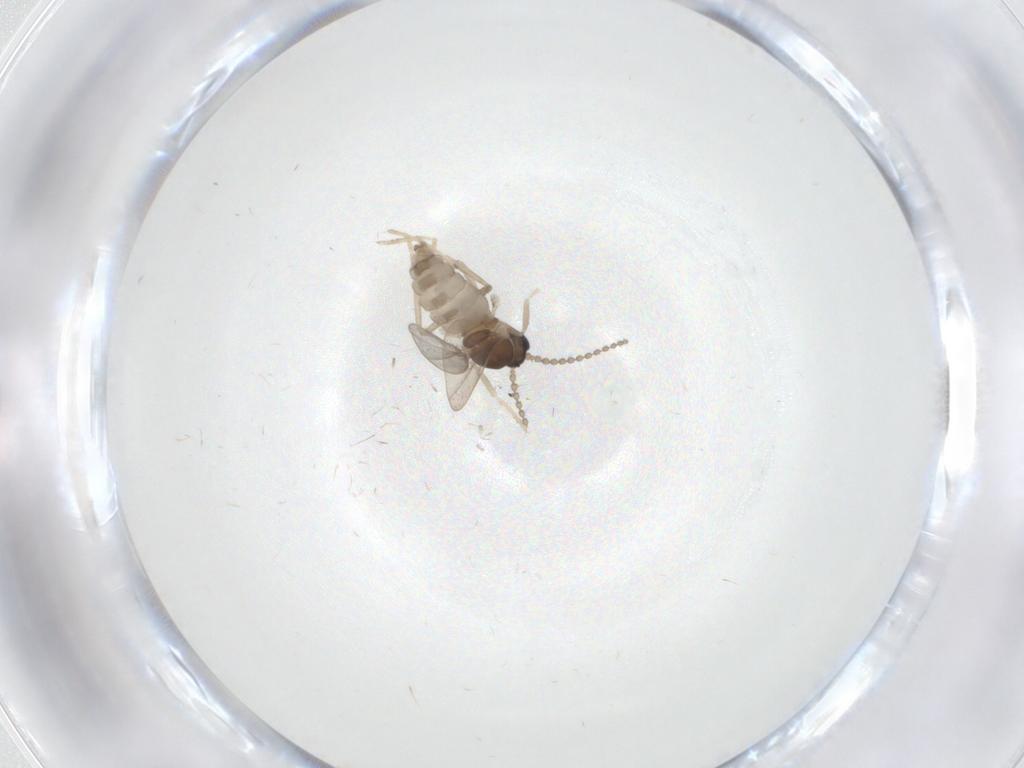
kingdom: Animalia
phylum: Arthropoda
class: Insecta
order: Diptera
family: Cecidomyiidae
